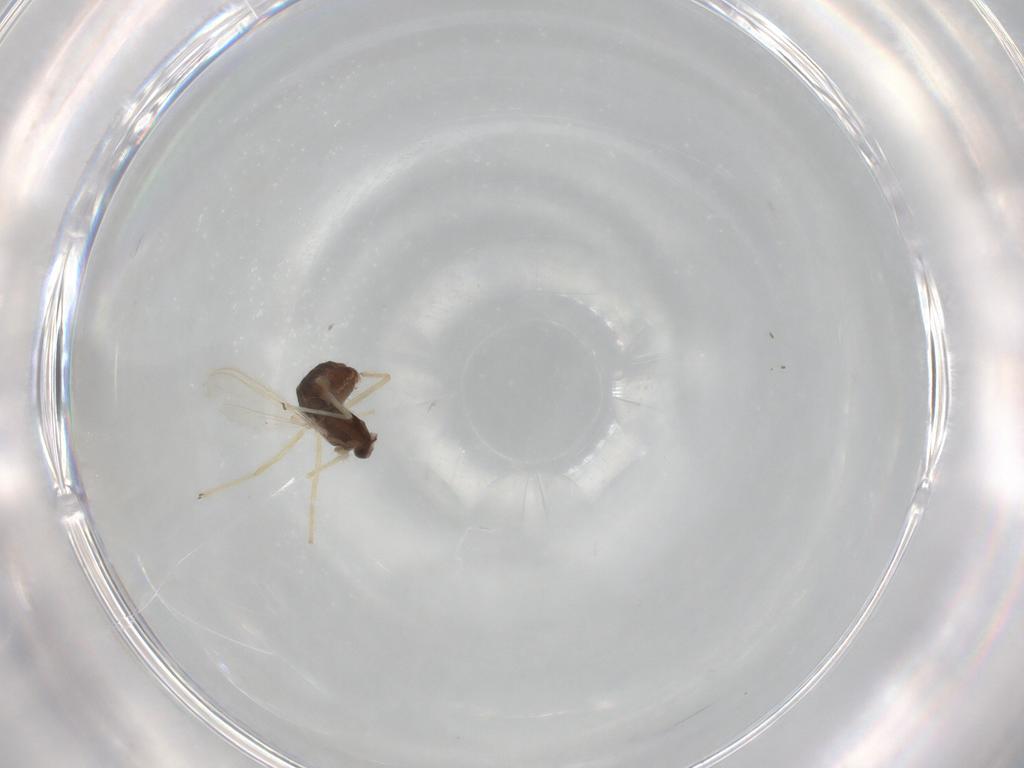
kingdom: Animalia
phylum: Arthropoda
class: Insecta
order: Diptera
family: Chironomidae
